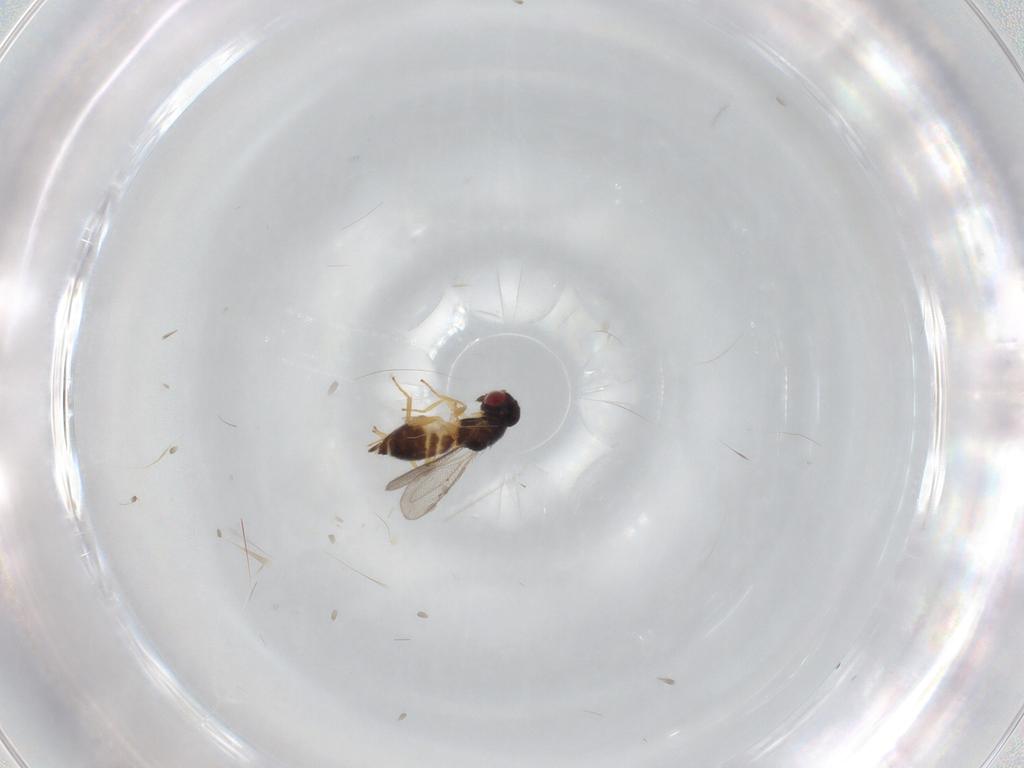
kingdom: Animalia
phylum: Arthropoda
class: Insecta
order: Hymenoptera
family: Eulophidae
